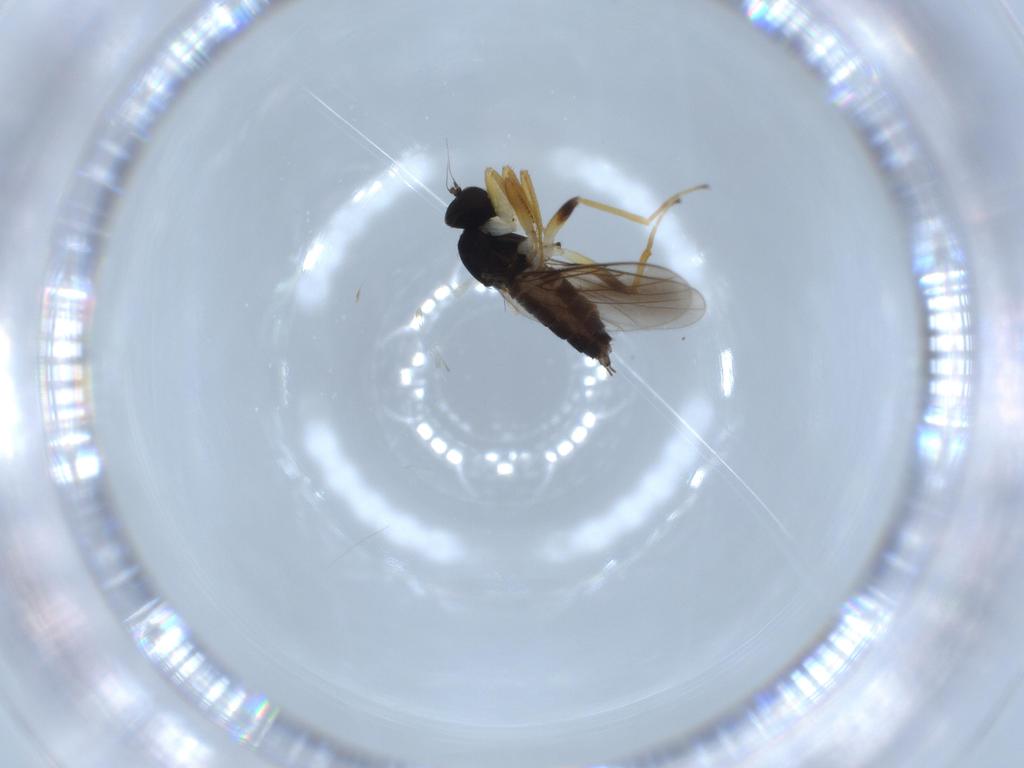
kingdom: Animalia
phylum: Arthropoda
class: Insecta
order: Diptera
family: Hybotidae
